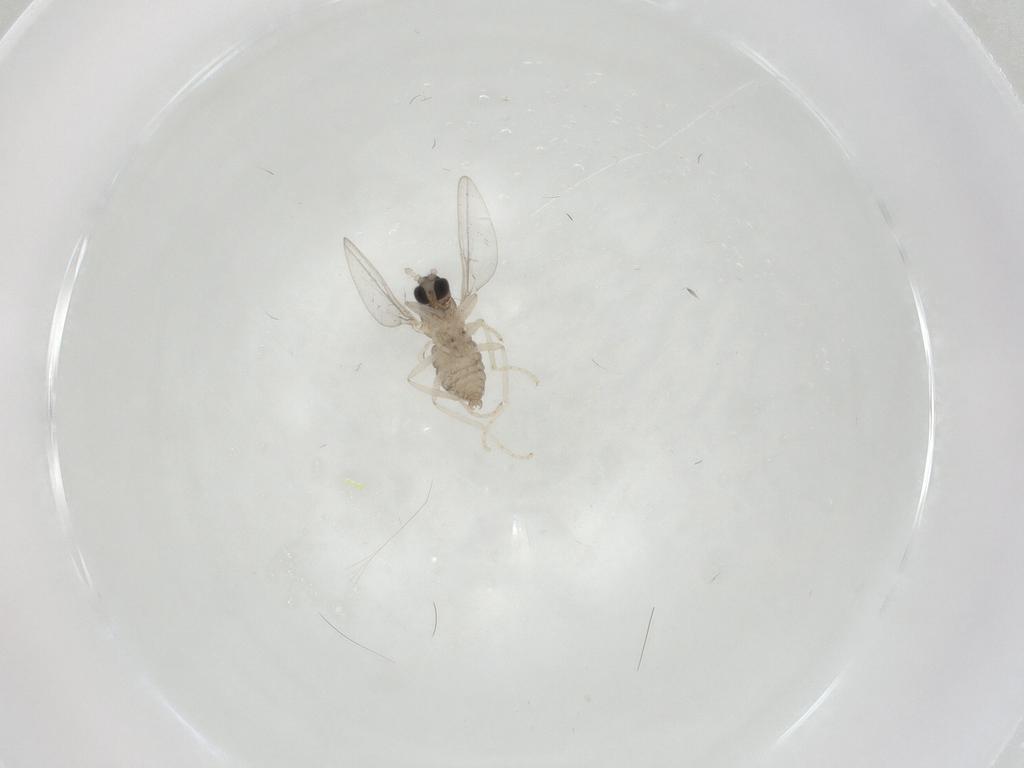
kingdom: Animalia
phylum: Arthropoda
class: Insecta
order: Diptera
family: Cecidomyiidae
